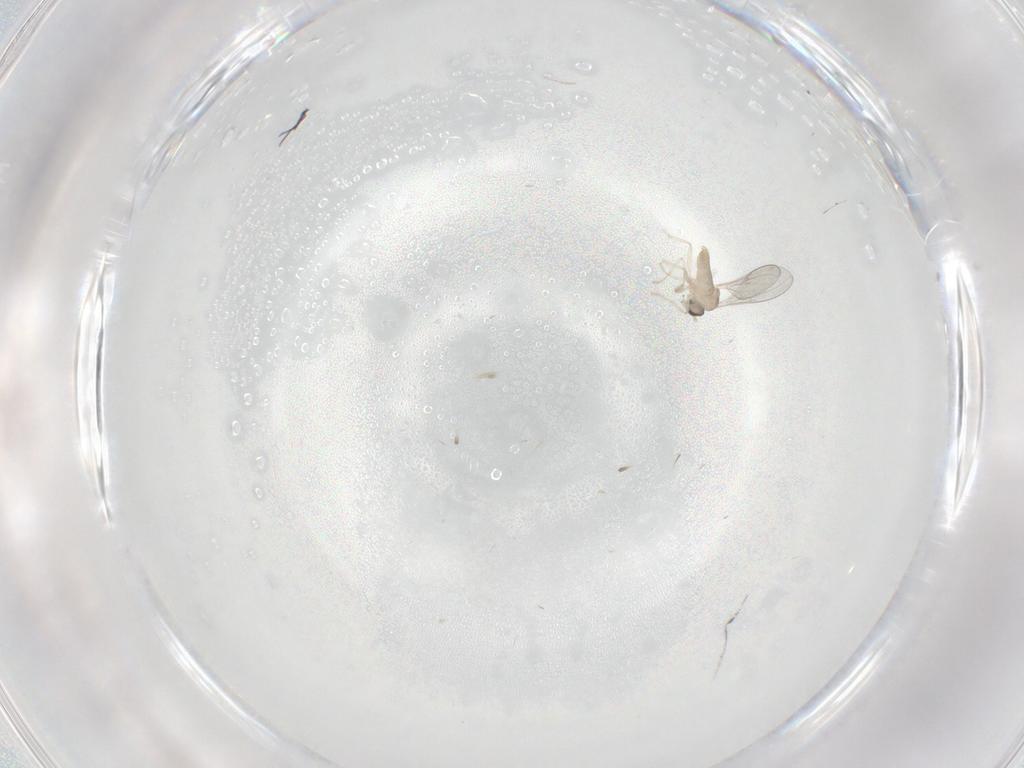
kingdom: Animalia
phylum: Arthropoda
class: Insecta
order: Diptera
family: Cecidomyiidae
